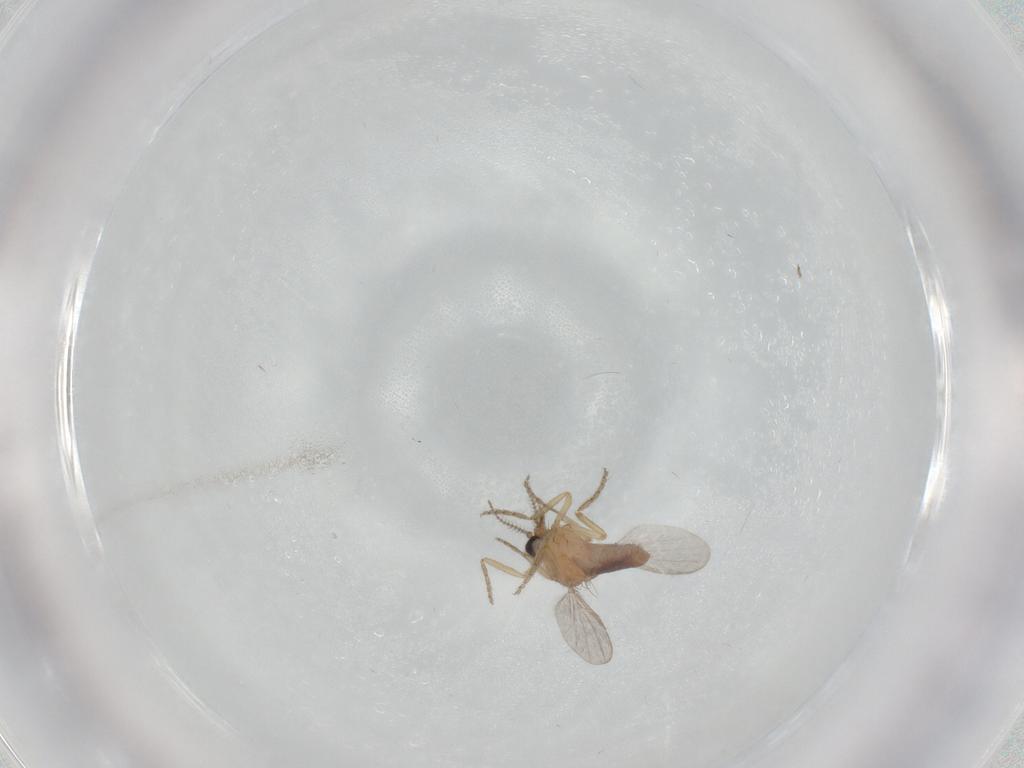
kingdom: Animalia
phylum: Arthropoda
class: Insecta
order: Diptera
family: Ceratopogonidae
